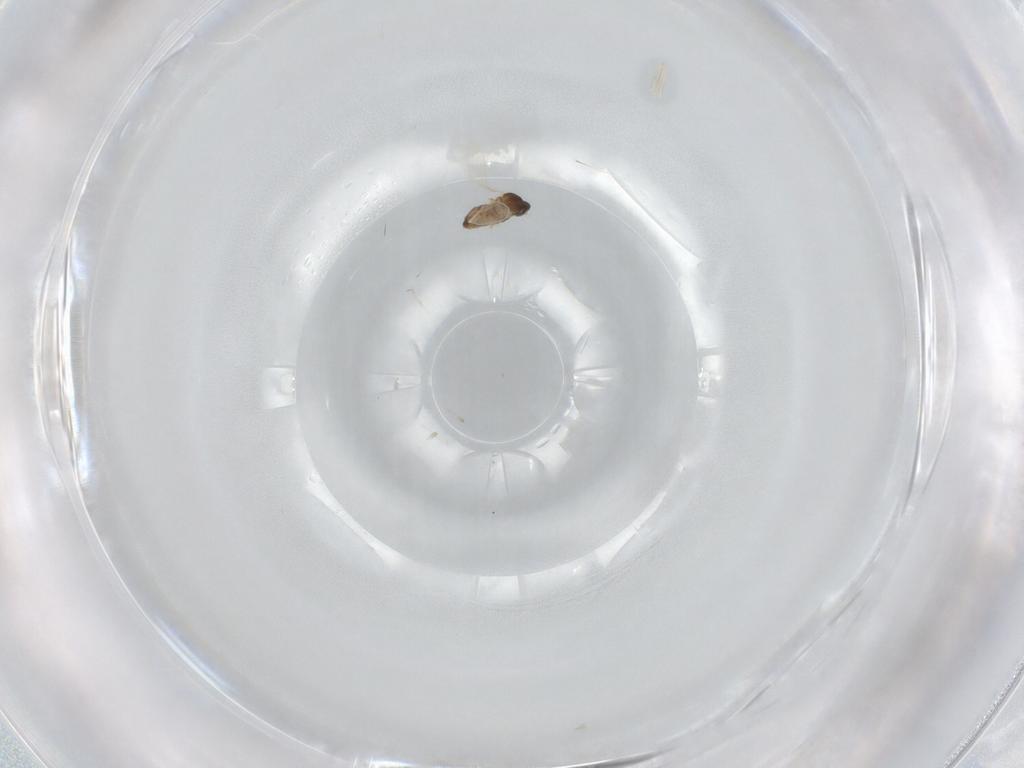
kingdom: Animalia
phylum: Arthropoda
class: Insecta
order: Diptera
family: Cecidomyiidae
